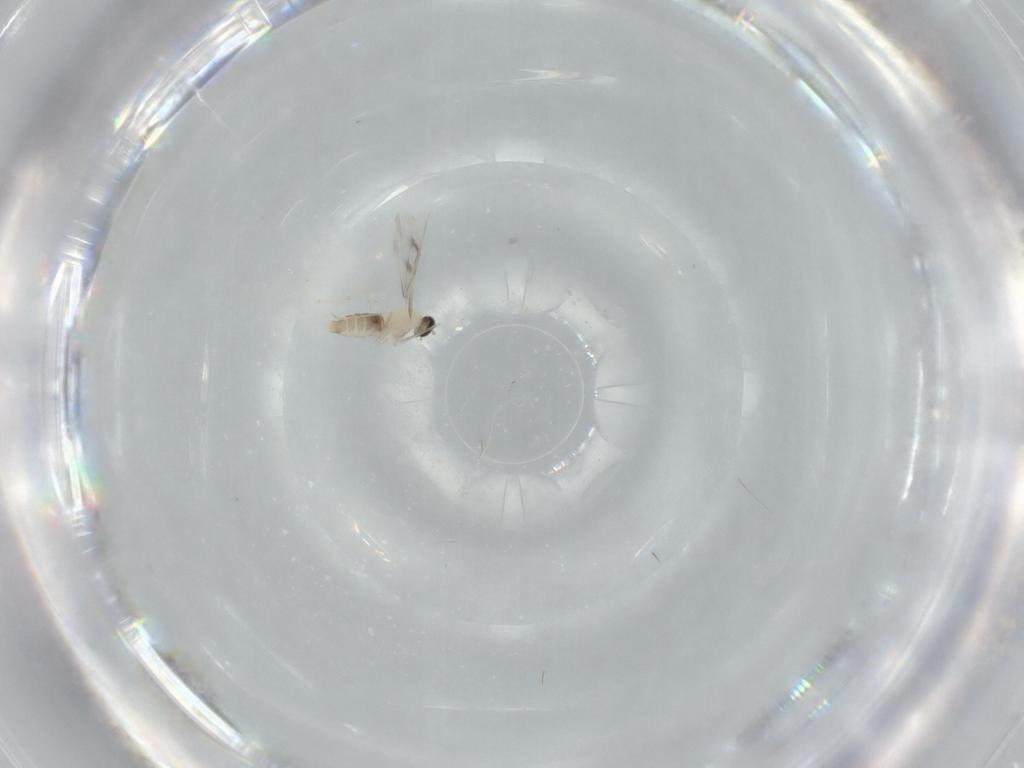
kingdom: Animalia
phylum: Arthropoda
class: Insecta
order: Diptera
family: Cecidomyiidae
